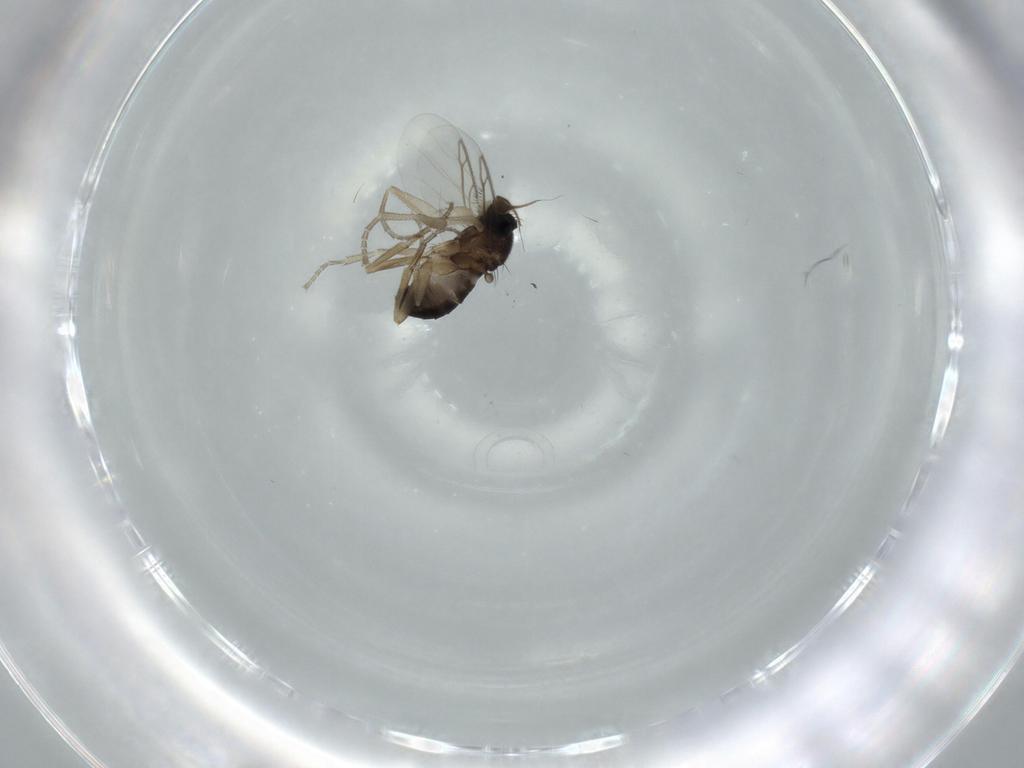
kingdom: Animalia
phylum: Arthropoda
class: Insecta
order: Diptera
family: Phoridae
